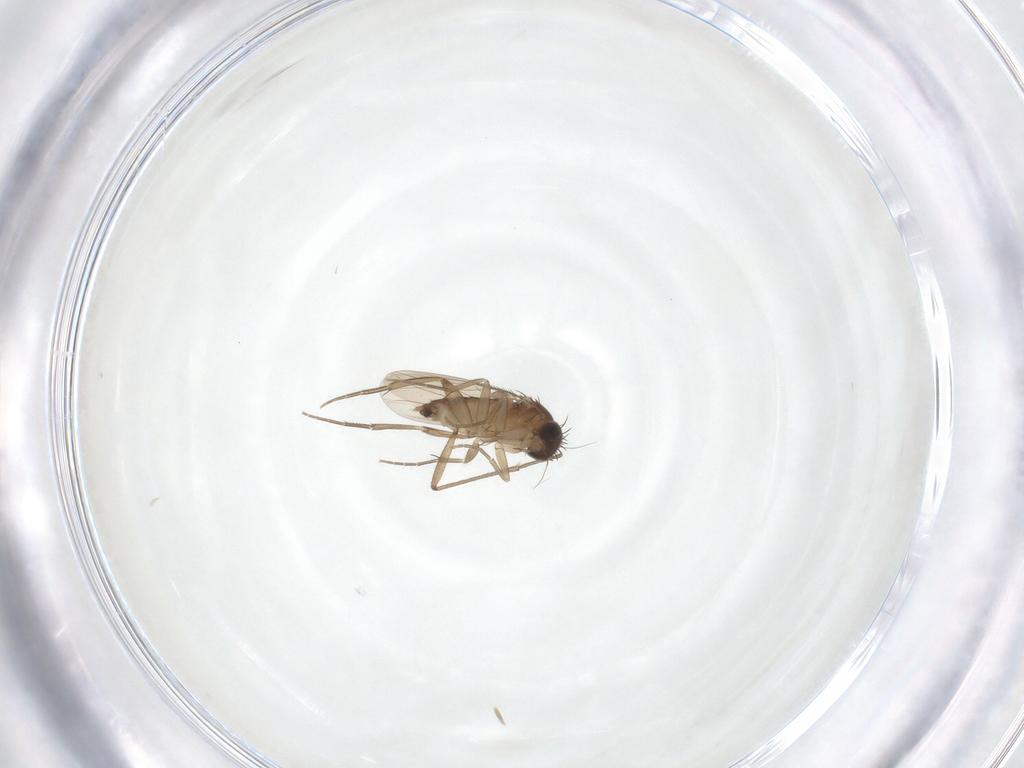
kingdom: Animalia
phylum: Arthropoda
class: Insecta
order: Diptera
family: Phoridae
